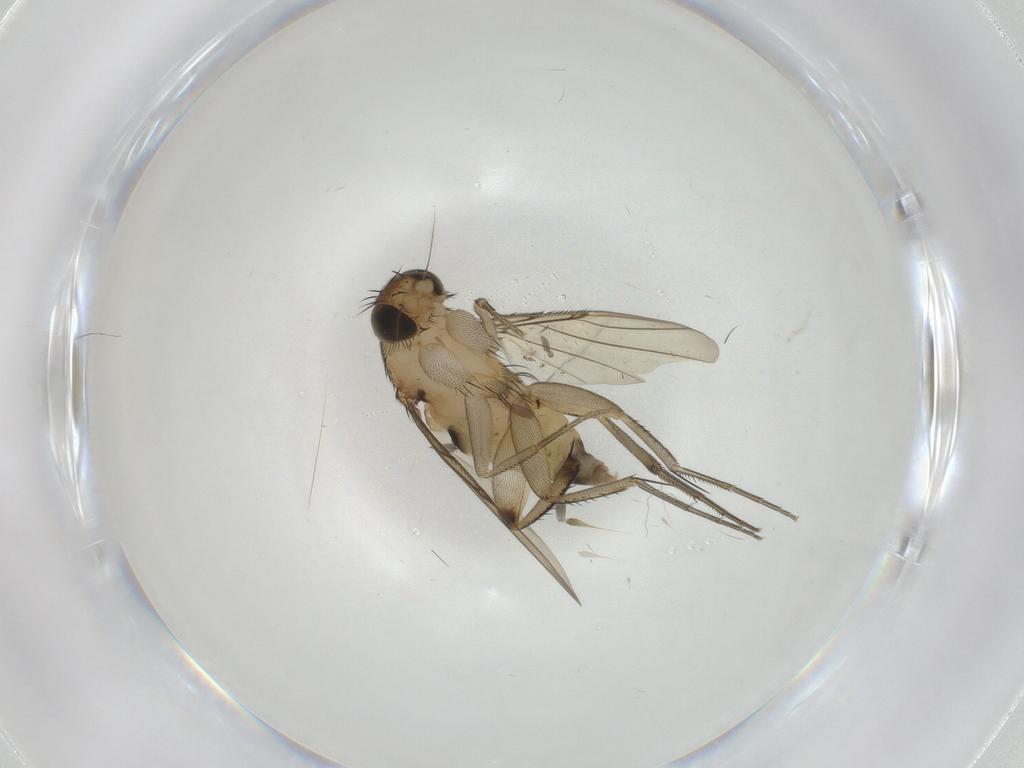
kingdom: Animalia
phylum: Arthropoda
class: Insecta
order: Diptera
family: Phoridae
